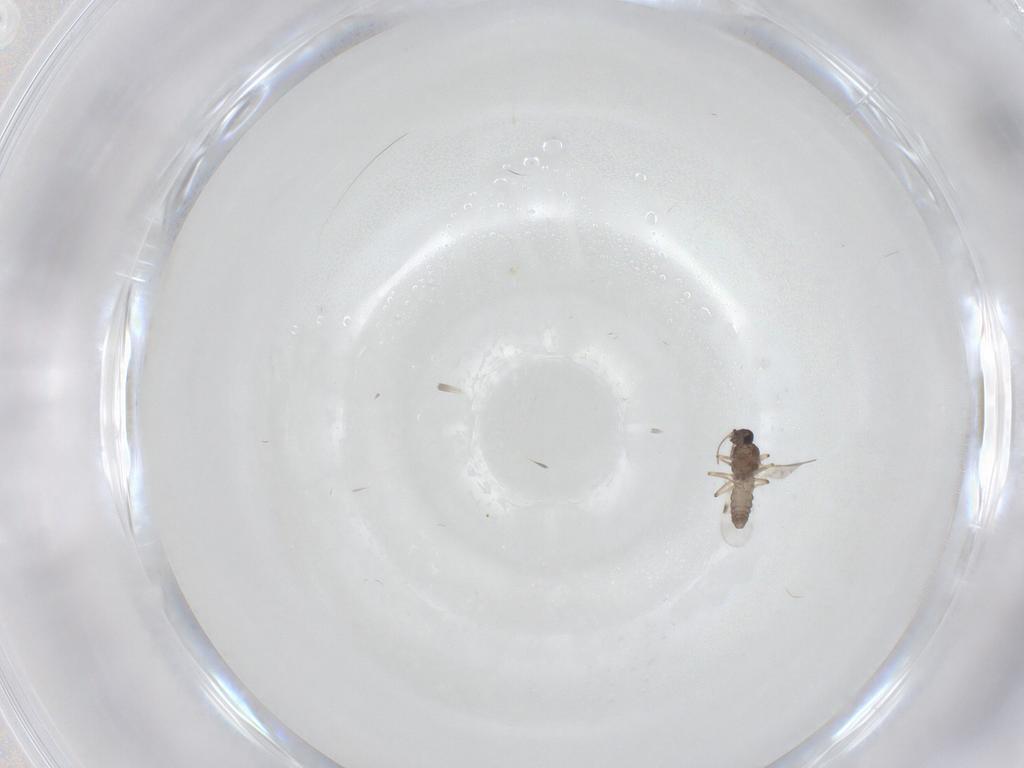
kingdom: Animalia
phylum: Arthropoda
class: Insecta
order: Diptera
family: Phoridae
